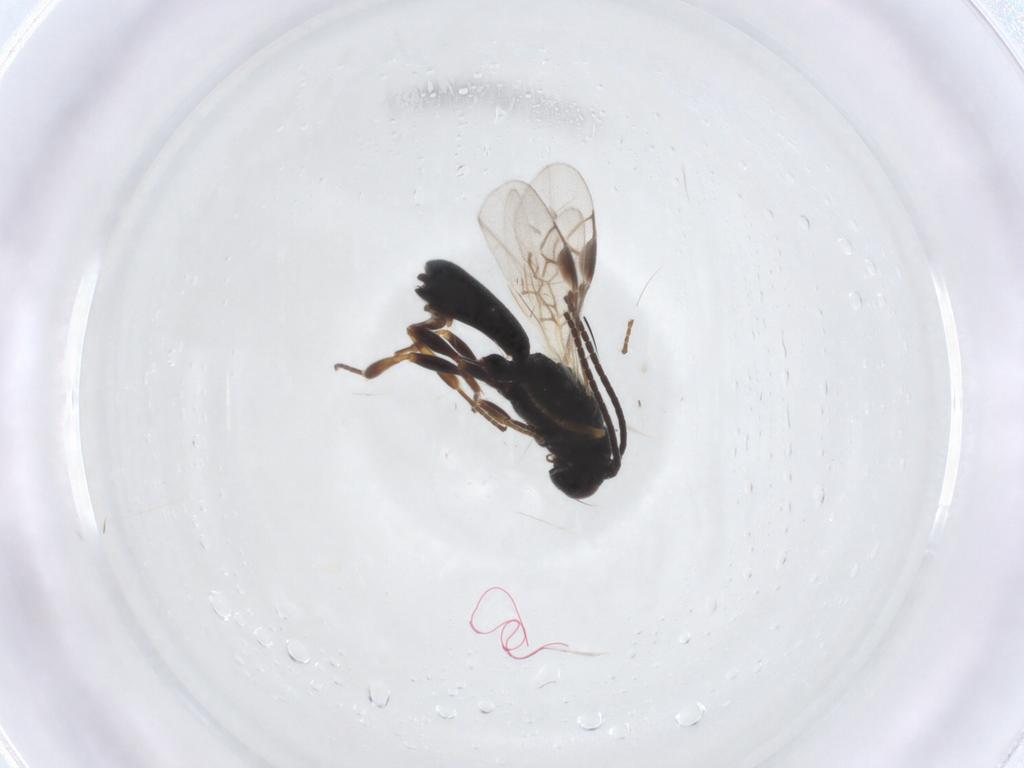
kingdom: Animalia
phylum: Arthropoda
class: Insecta
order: Hymenoptera
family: Braconidae
